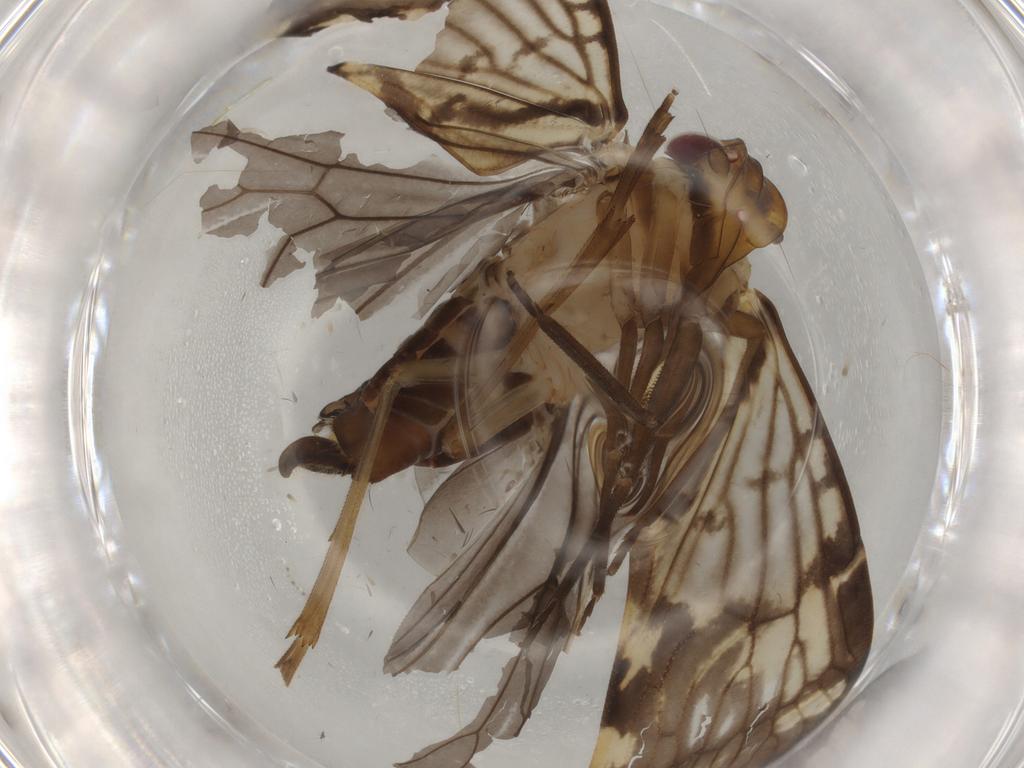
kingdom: Animalia
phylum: Arthropoda
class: Insecta
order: Hemiptera
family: Cixiidae
